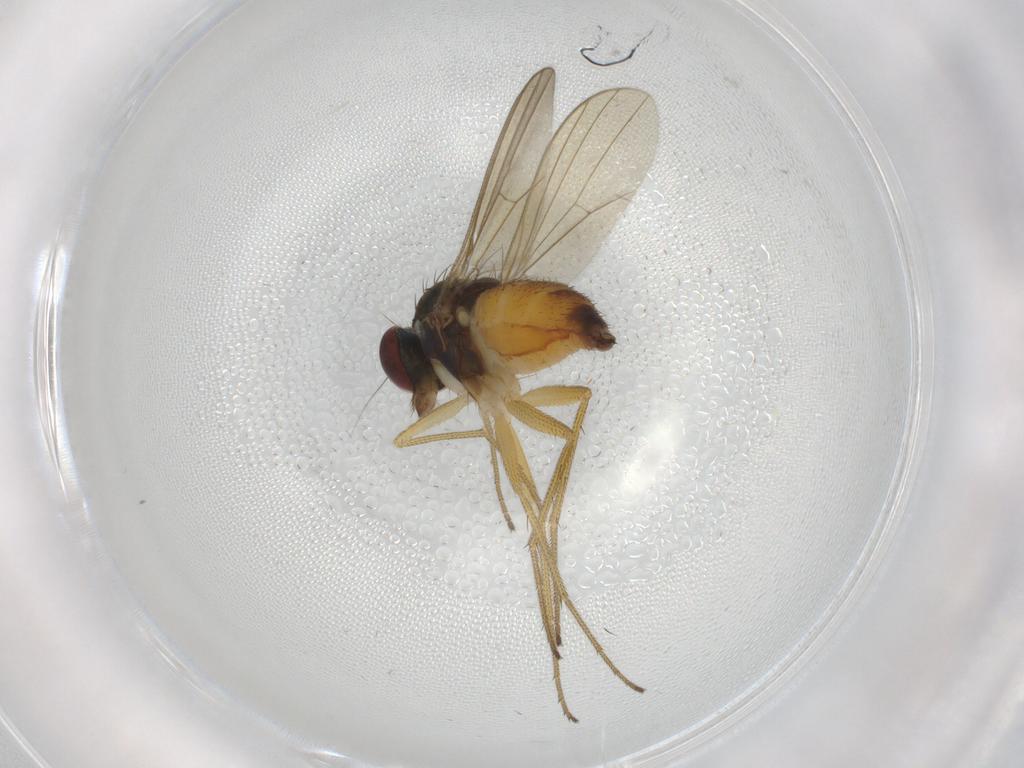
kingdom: Animalia
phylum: Arthropoda
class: Insecta
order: Diptera
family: Dolichopodidae
